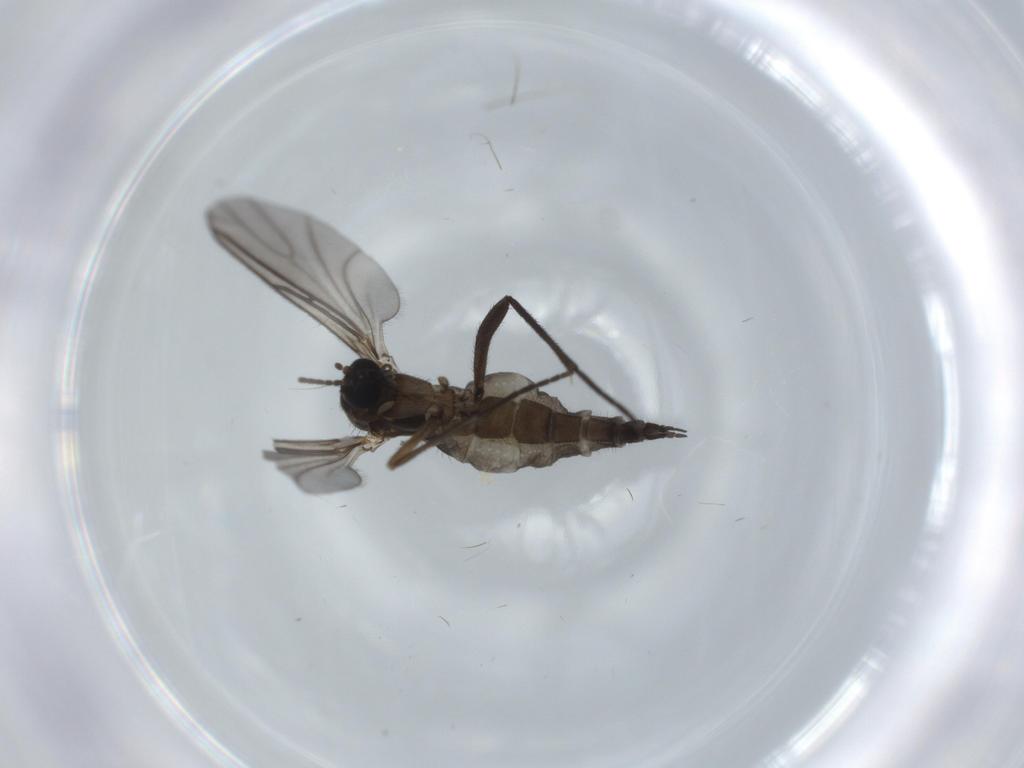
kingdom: Animalia
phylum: Arthropoda
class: Insecta
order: Diptera
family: Sciaridae
